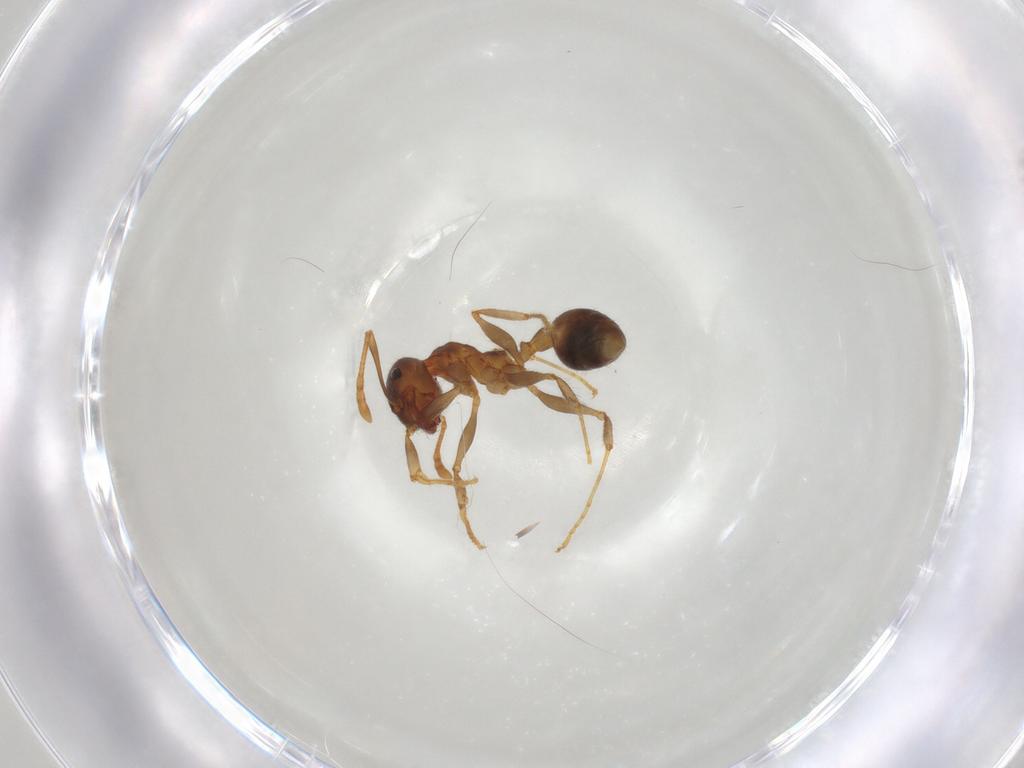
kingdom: Animalia
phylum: Arthropoda
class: Insecta
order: Hymenoptera
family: Formicidae
